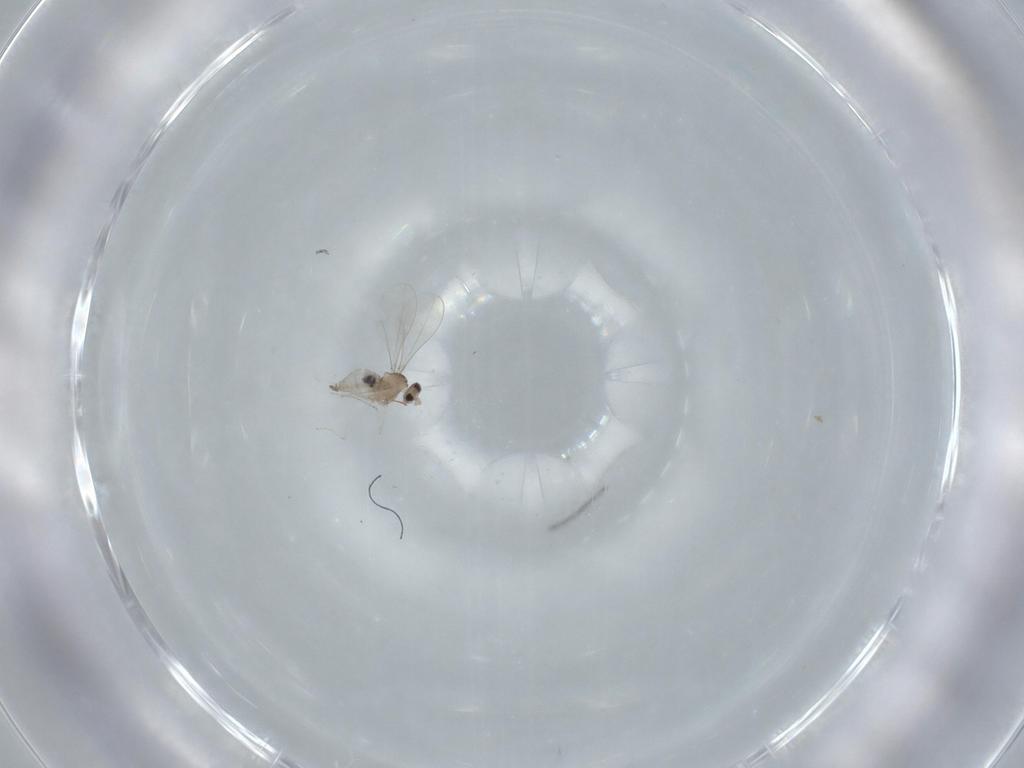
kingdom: Animalia
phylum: Arthropoda
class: Insecta
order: Diptera
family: Cecidomyiidae
